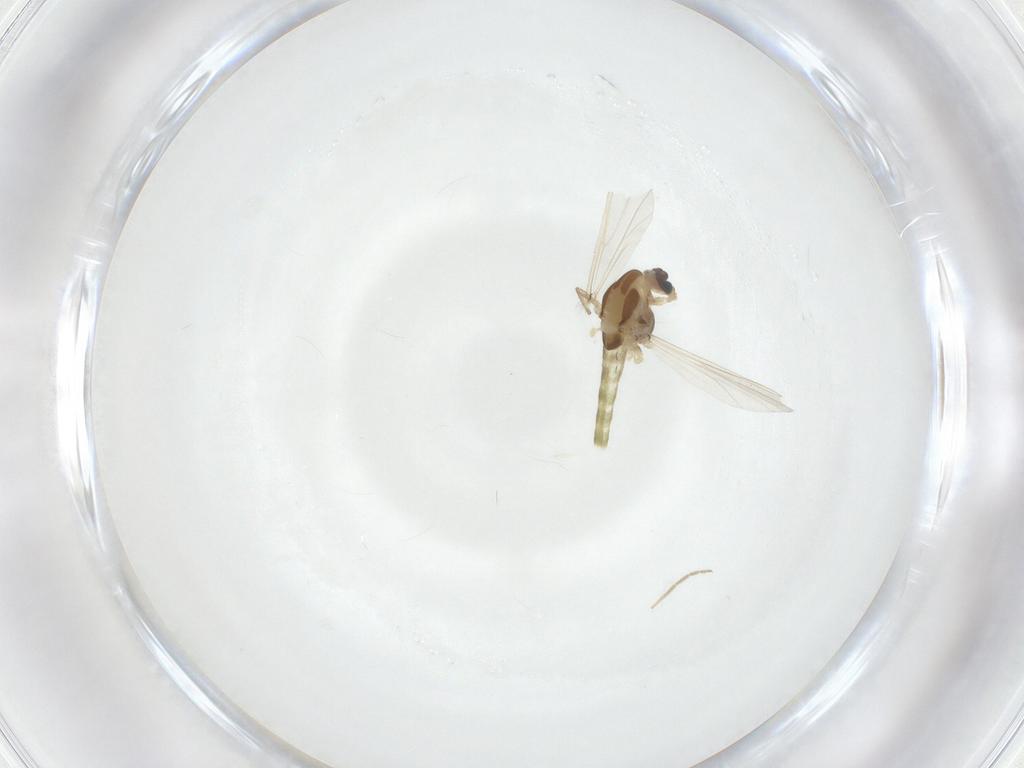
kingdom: Animalia
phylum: Arthropoda
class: Insecta
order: Diptera
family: Chironomidae
